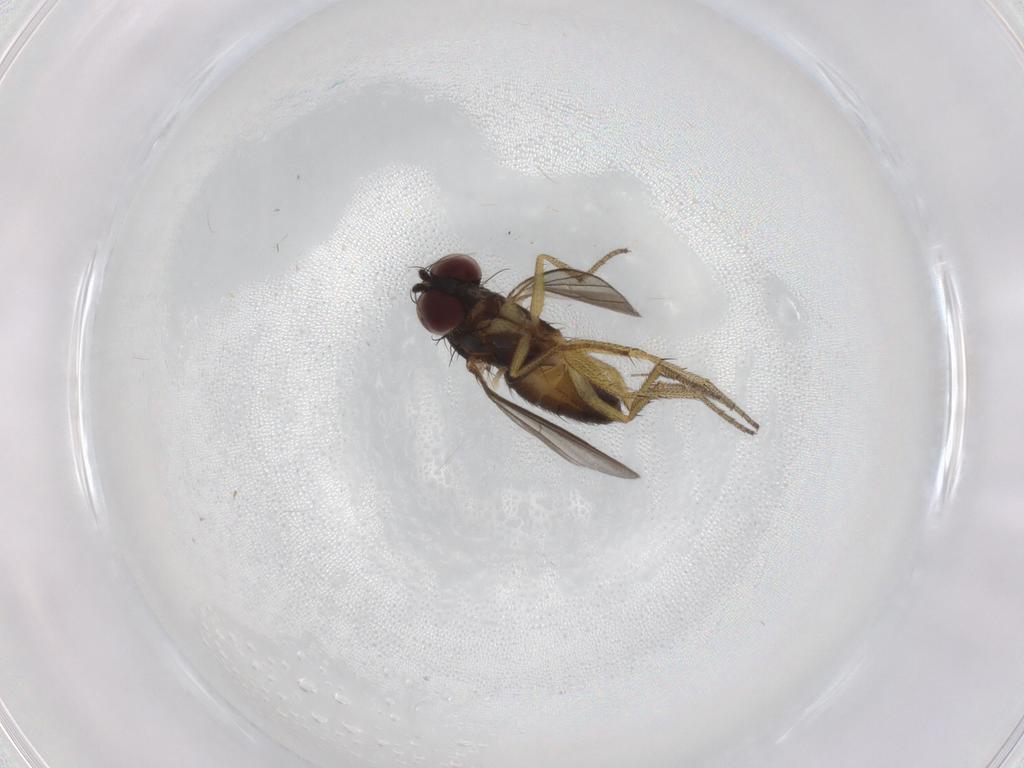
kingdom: Animalia
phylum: Arthropoda
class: Insecta
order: Diptera
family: Dolichopodidae
